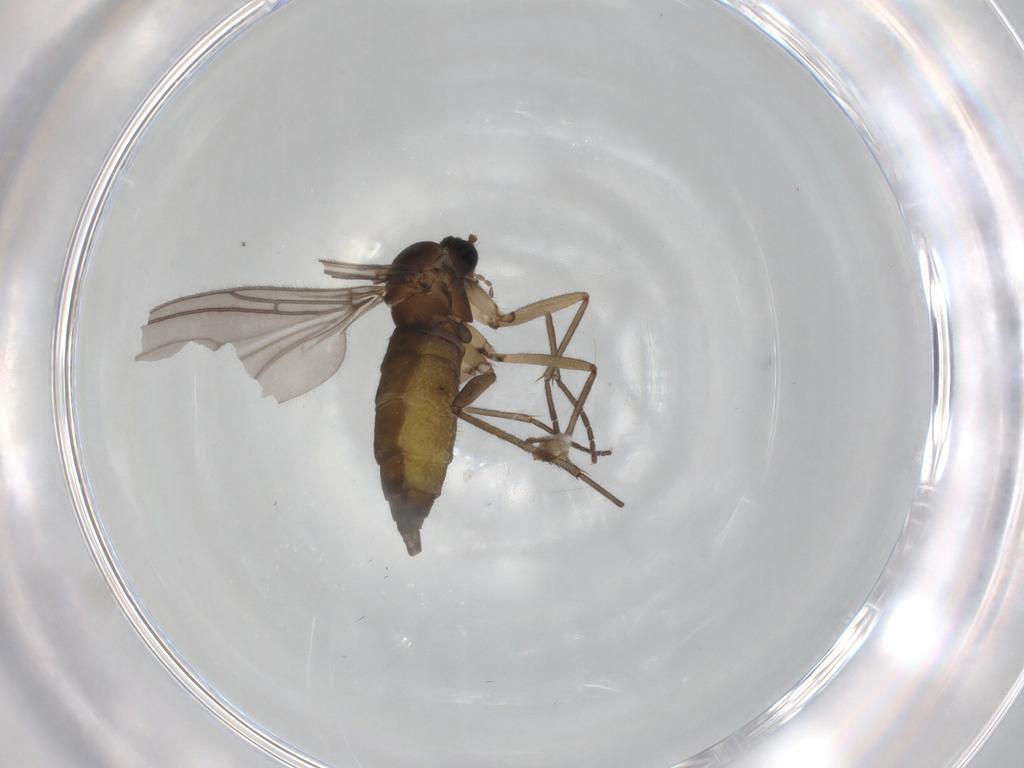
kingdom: Animalia
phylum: Arthropoda
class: Insecta
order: Diptera
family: Sciaridae
